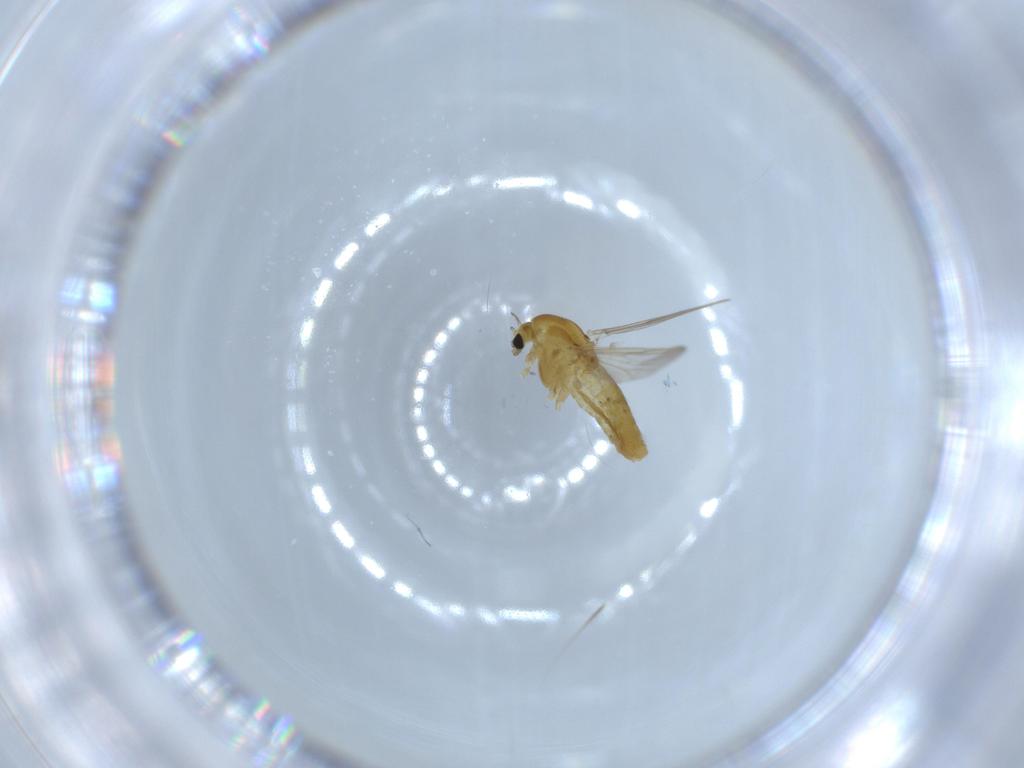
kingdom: Animalia
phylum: Arthropoda
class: Insecta
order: Diptera
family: Chironomidae
